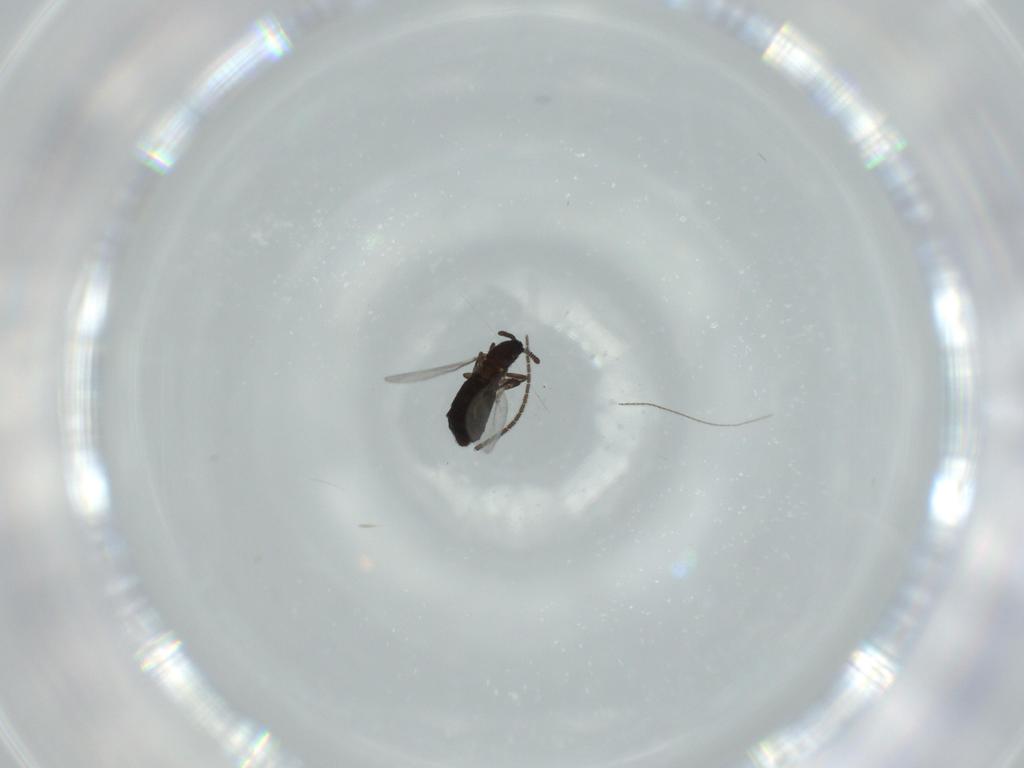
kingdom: Animalia
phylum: Arthropoda
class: Insecta
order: Diptera
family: Scatopsidae
